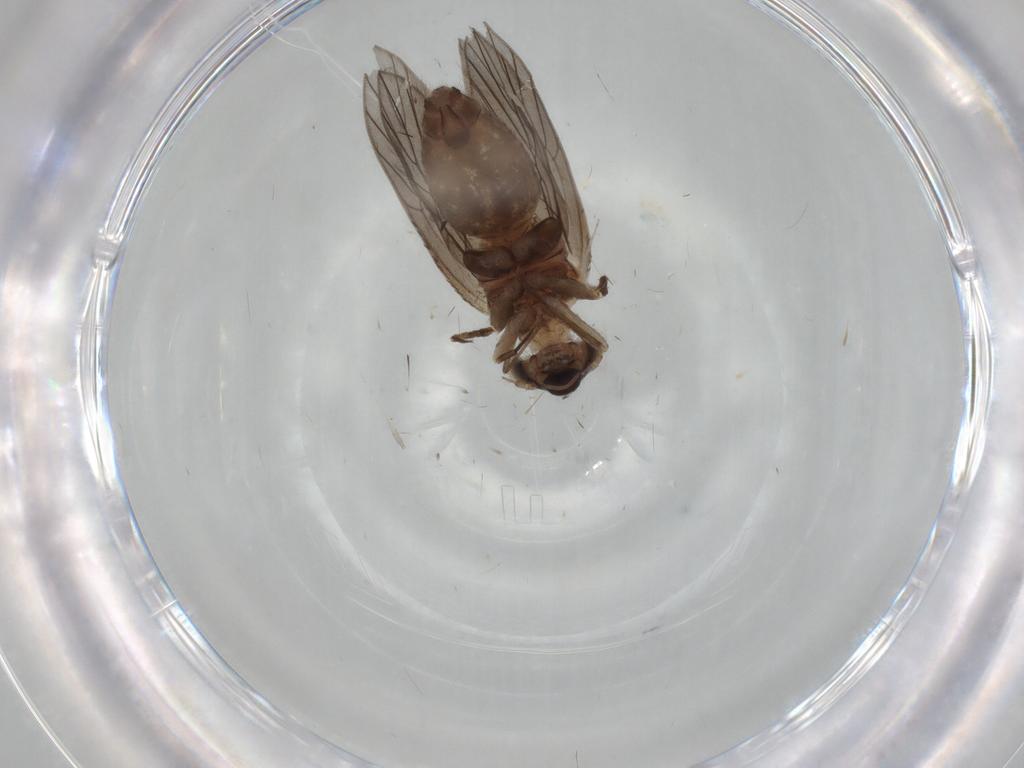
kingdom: Animalia
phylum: Arthropoda
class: Insecta
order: Psocodea
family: Lepidopsocidae
